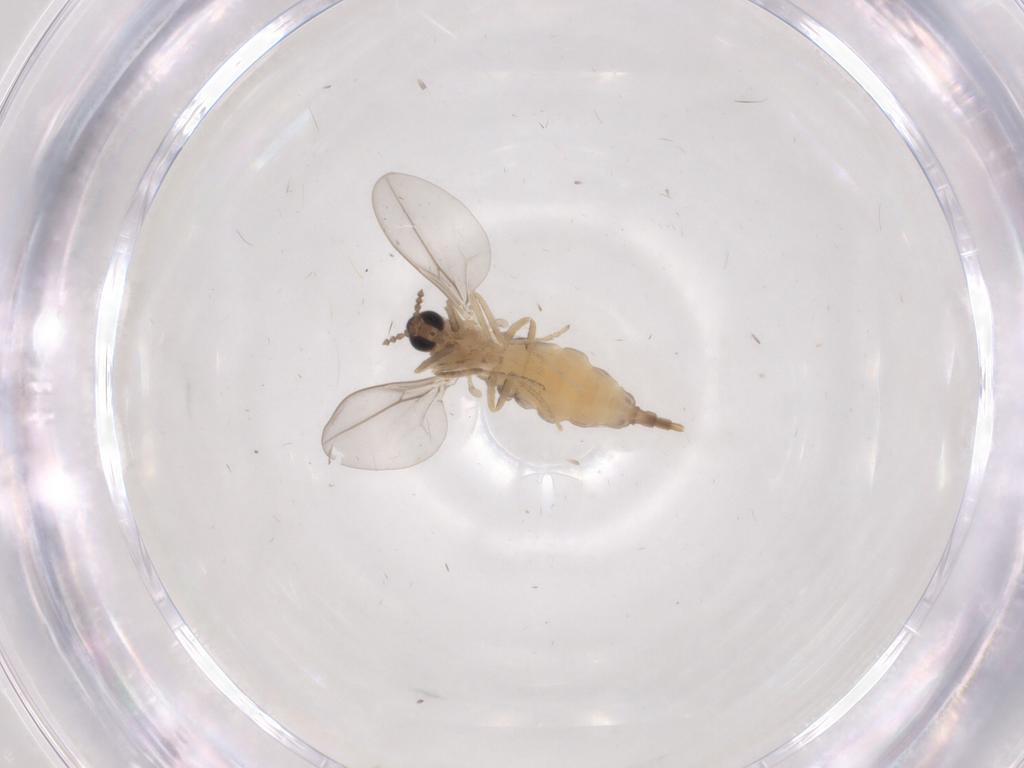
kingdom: Animalia
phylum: Arthropoda
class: Insecta
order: Diptera
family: Cecidomyiidae
